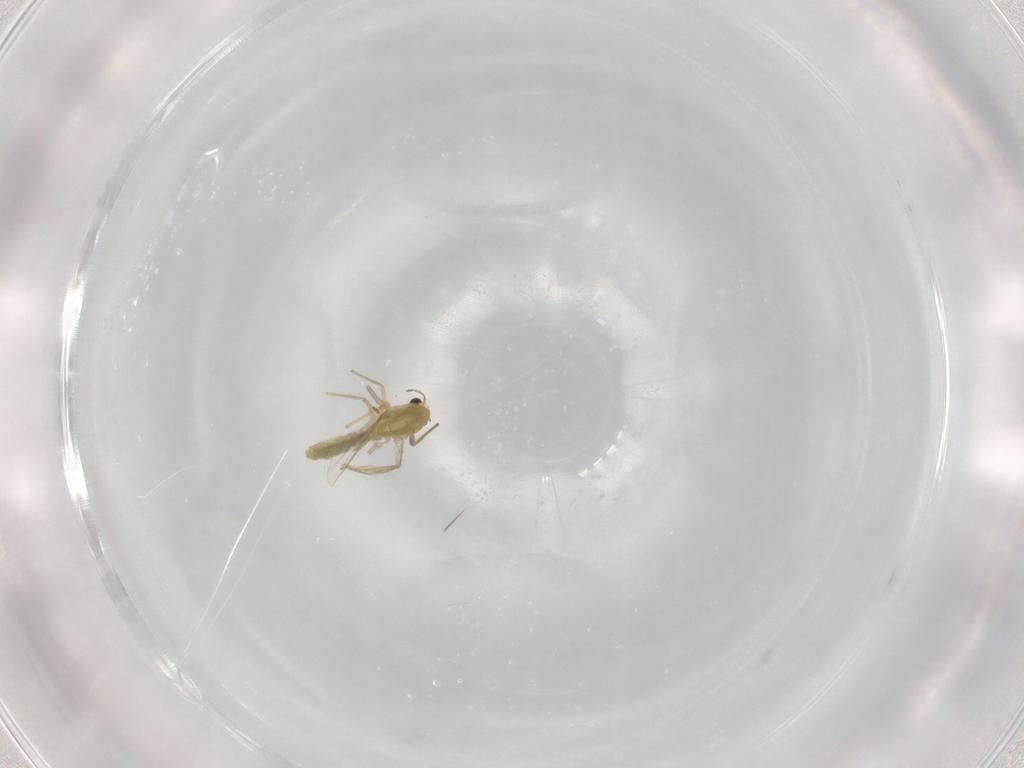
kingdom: Animalia
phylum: Arthropoda
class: Insecta
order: Diptera
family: Chironomidae
